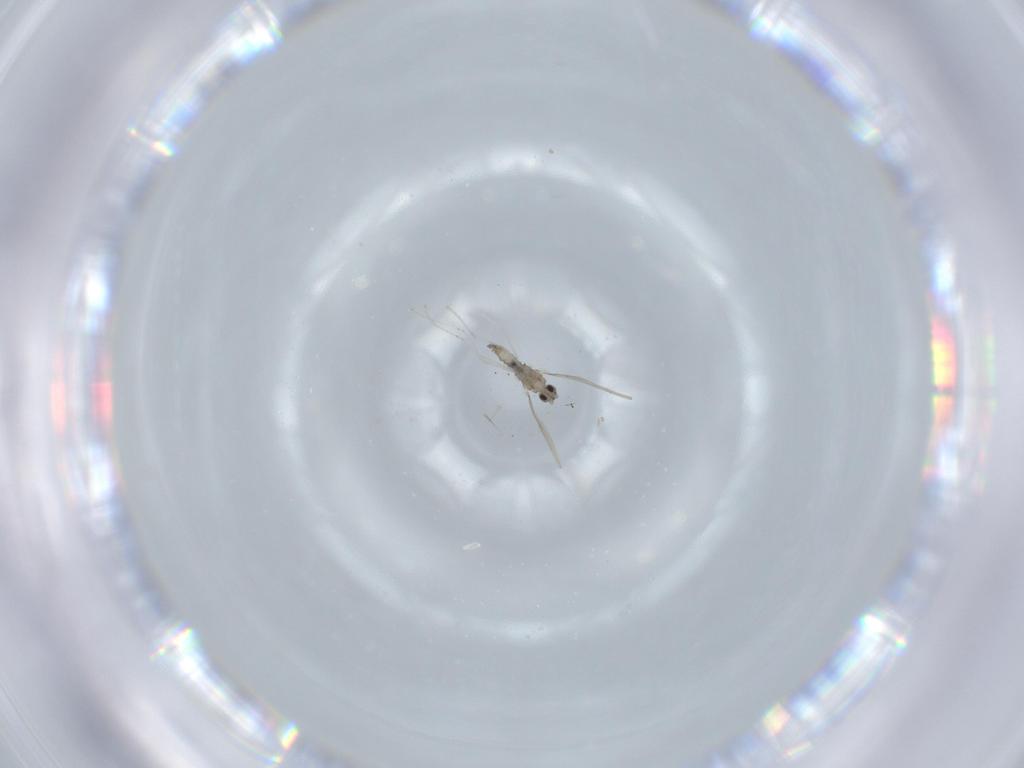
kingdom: Animalia
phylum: Arthropoda
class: Insecta
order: Diptera
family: Cecidomyiidae
